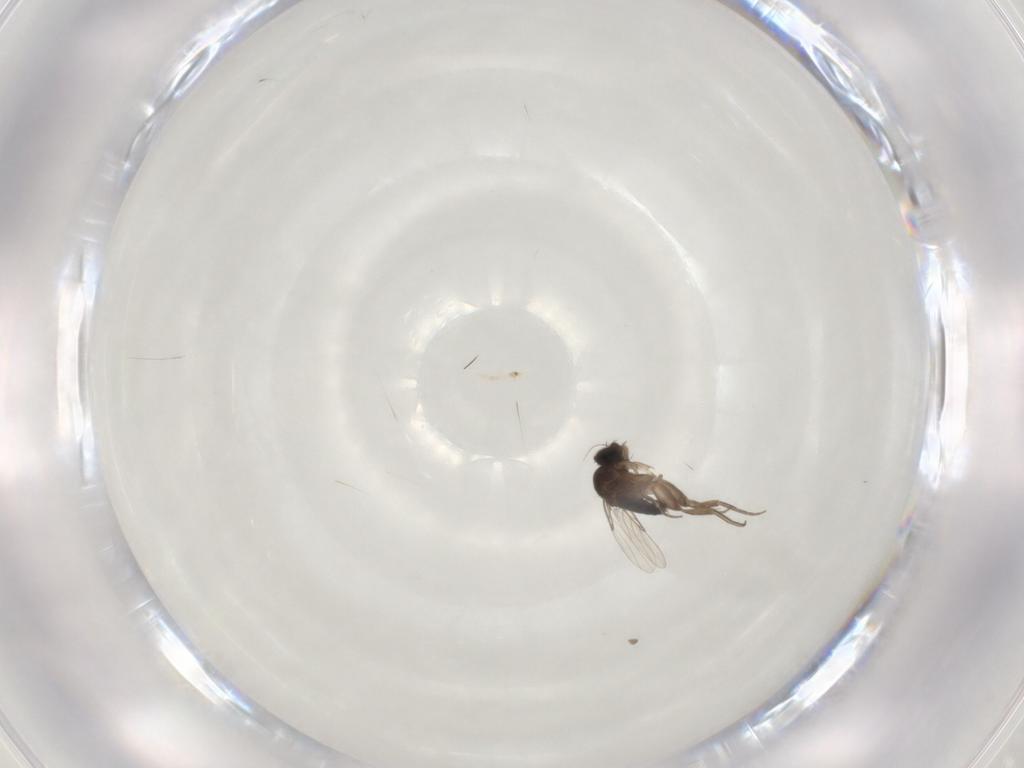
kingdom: Animalia
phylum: Arthropoda
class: Insecta
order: Diptera
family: Phoridae
